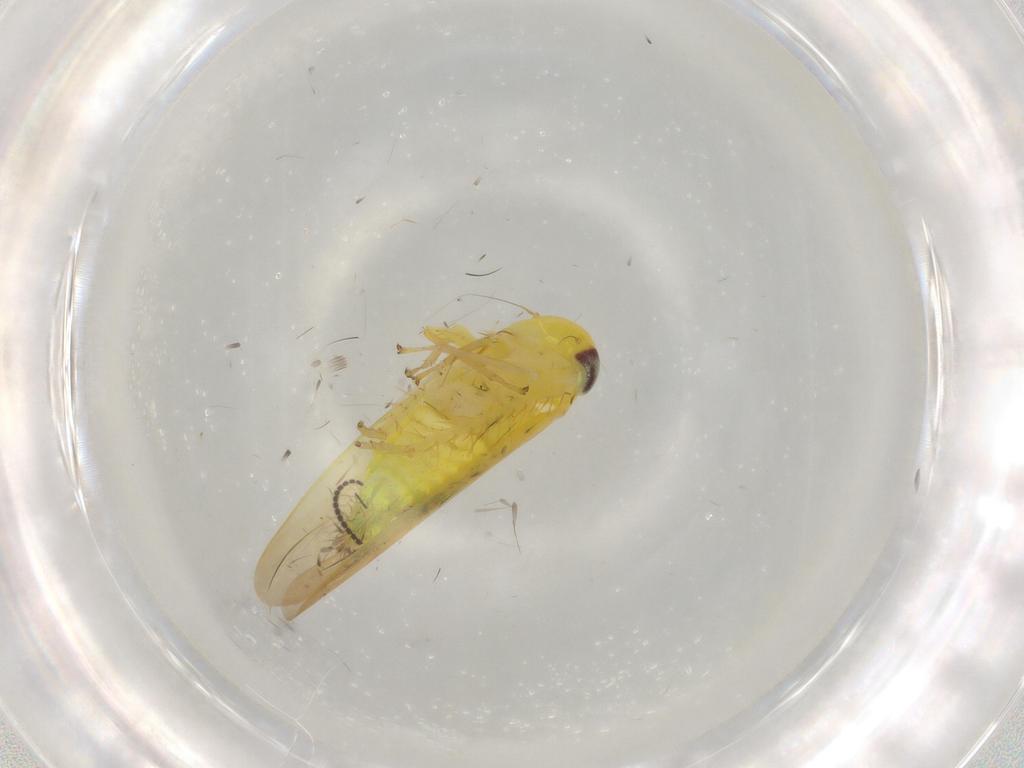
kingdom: Animalia
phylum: Arthropoda
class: Insecta
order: Hemiptera
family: Cicadellidae
